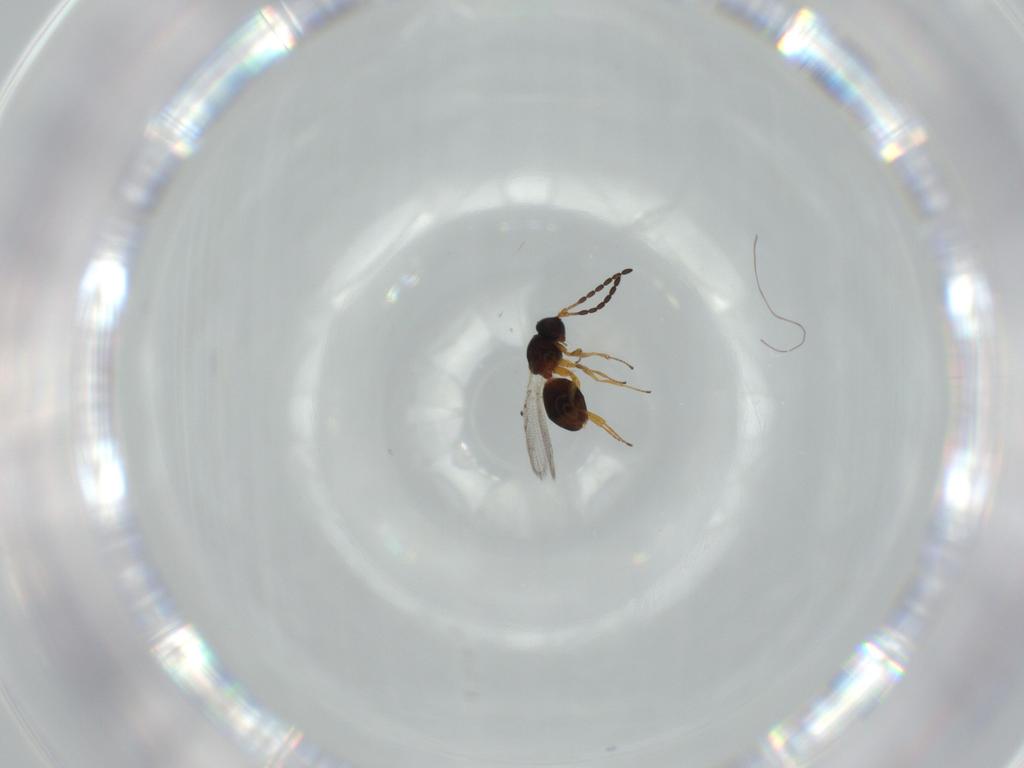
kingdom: Animalia
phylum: Arthropoda
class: Insecta
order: Hymenoptera
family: Figitidae
